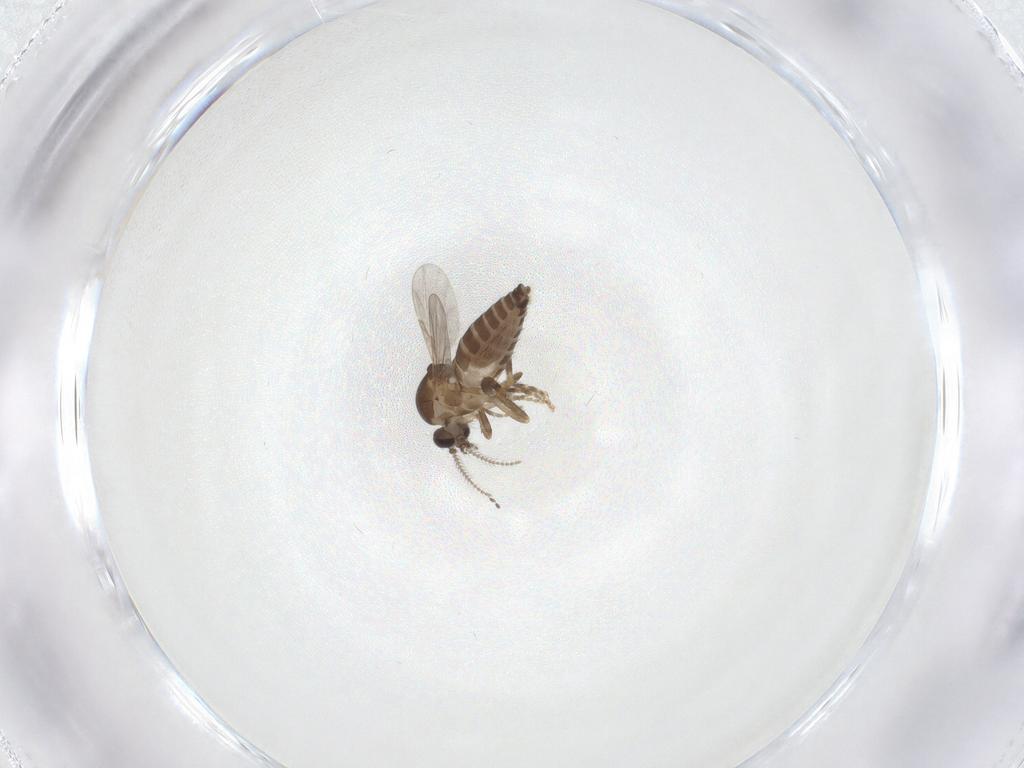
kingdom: Animalia
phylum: Arthropoda
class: Insecta
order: Diptera
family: Ceratopogonidae
